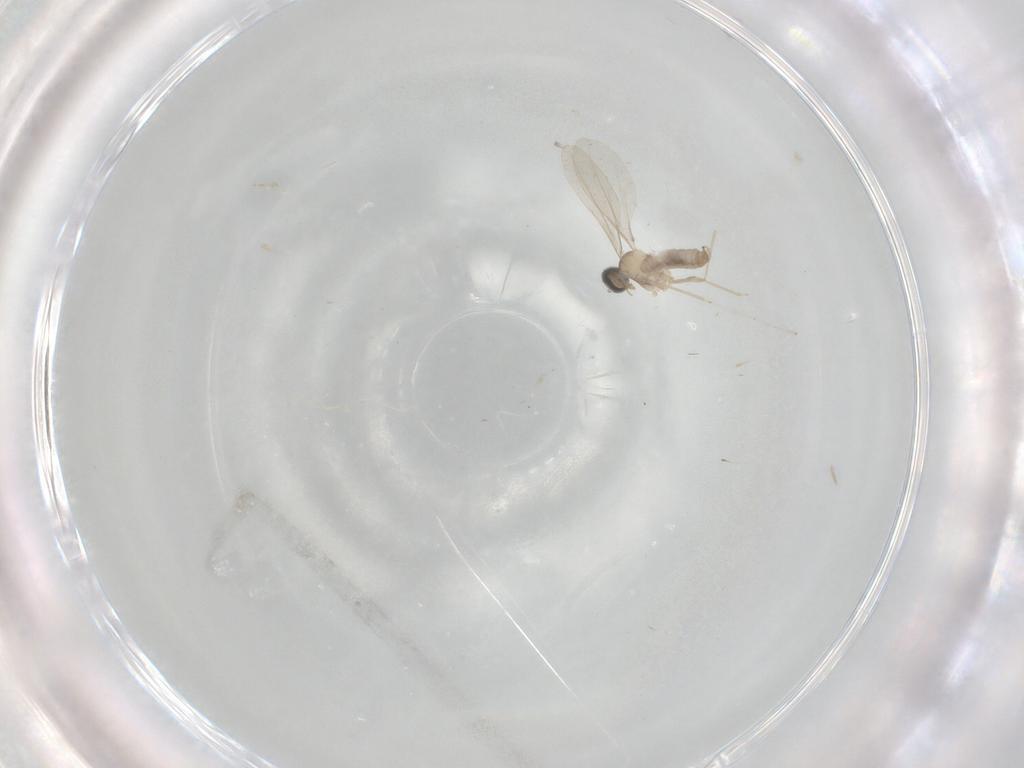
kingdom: Animalia
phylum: Arthropoda
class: Insecta
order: Diptera
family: Cecidomyiidae
